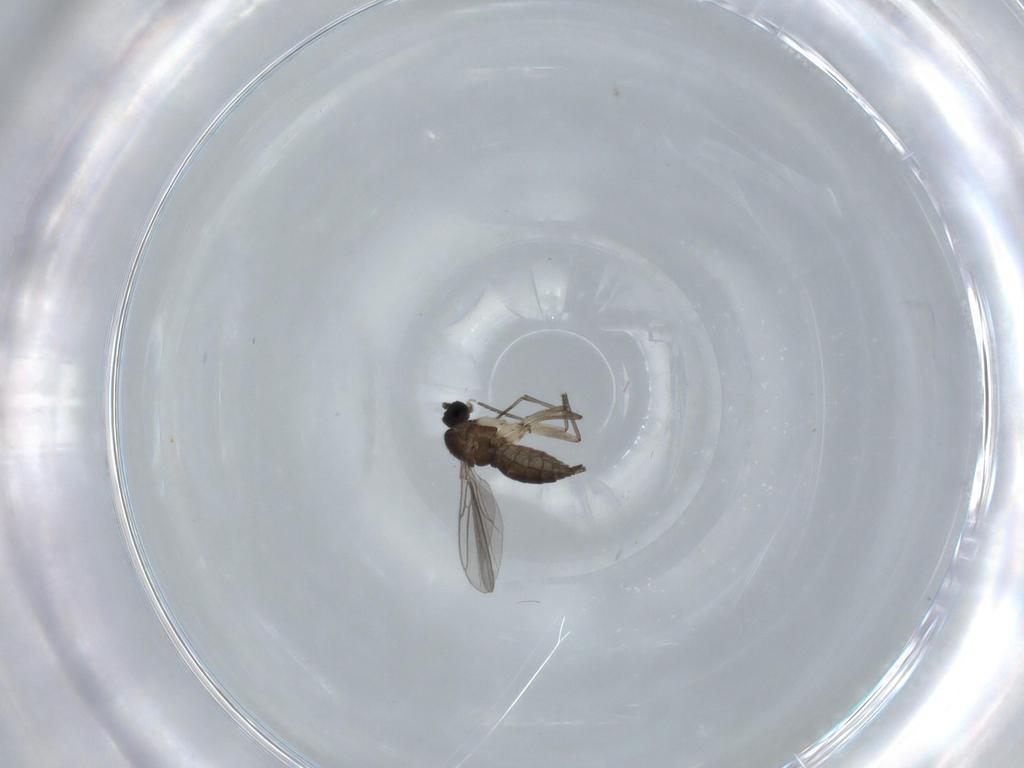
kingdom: Animalia
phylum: Arthropoda
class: Insecta
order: Diptera
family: Sciaridae
